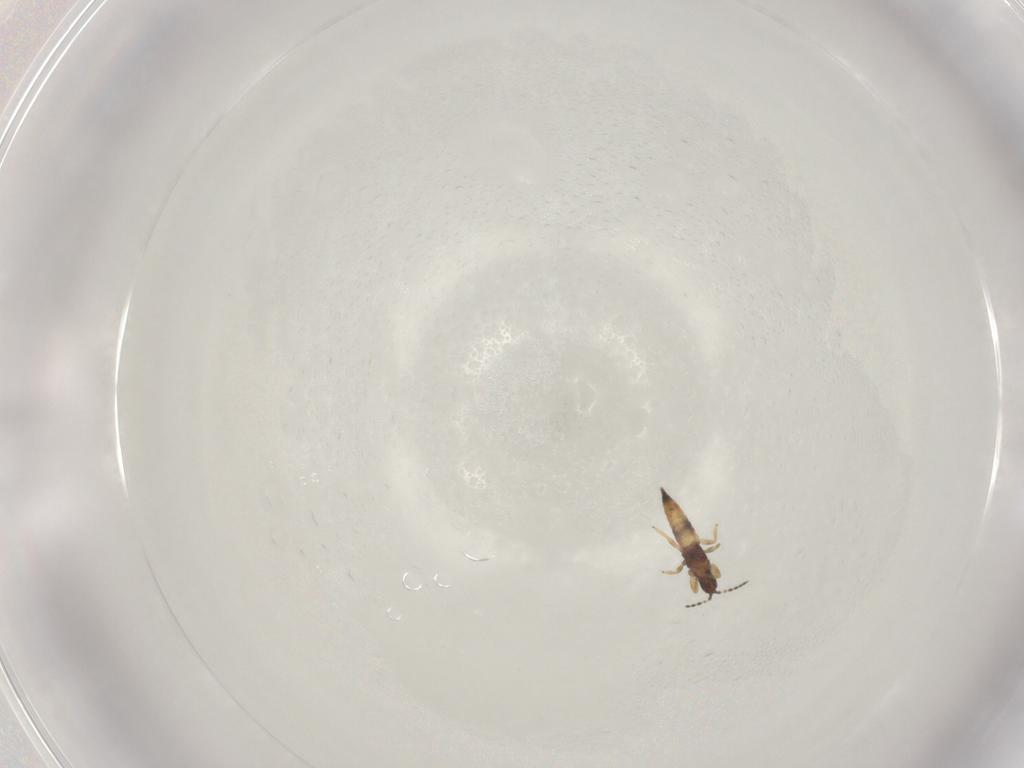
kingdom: Animalia
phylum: Arthropoda
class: Insecta
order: Thysanoptera
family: Phlaeothripidae
